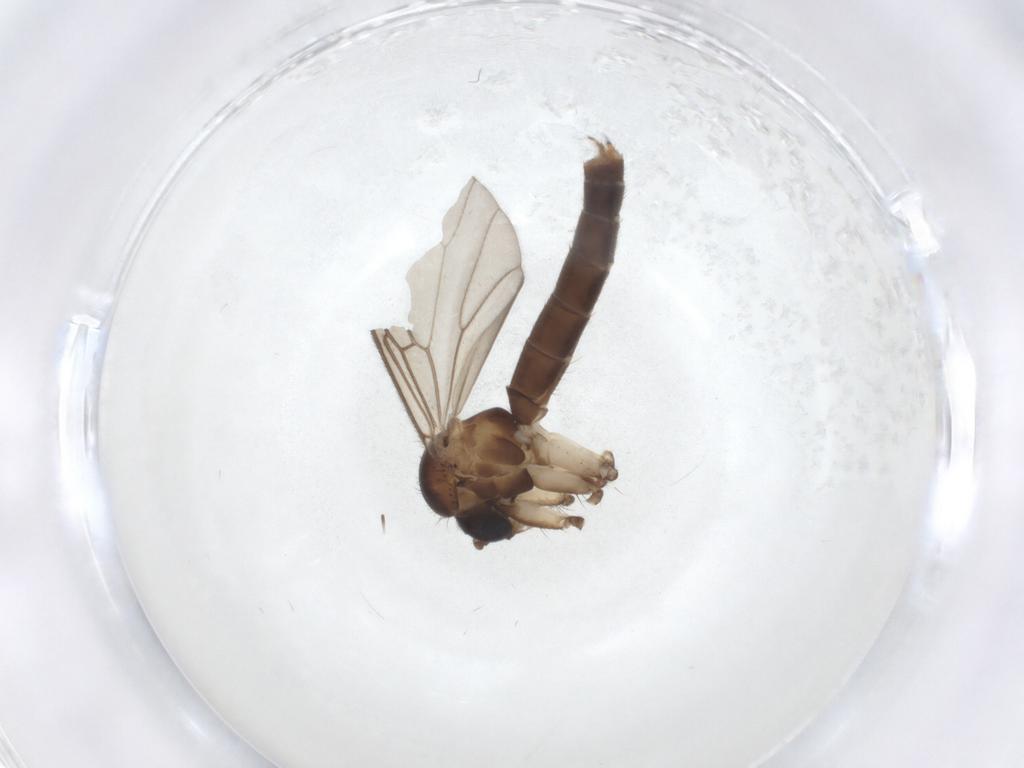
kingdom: Animalia
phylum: Arthropoda
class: Insecta
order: Diptera
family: Mycetophilidae
